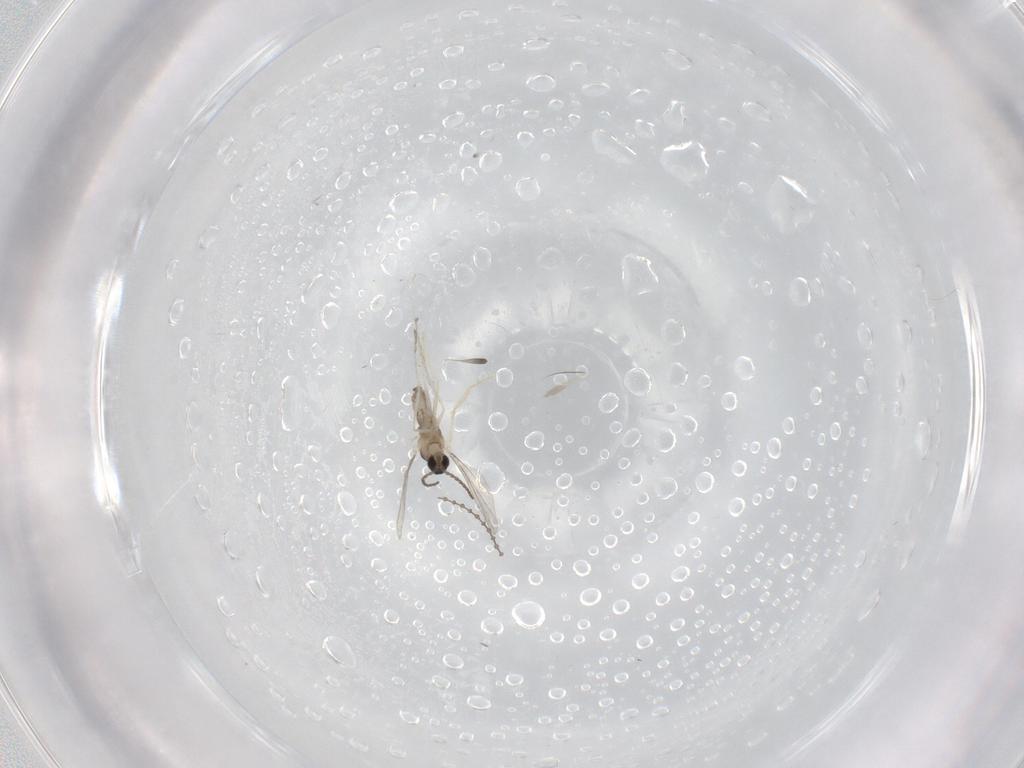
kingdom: Animalia
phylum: Arthropoda
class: Insecta
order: Diptera
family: Cecidomyiidae
